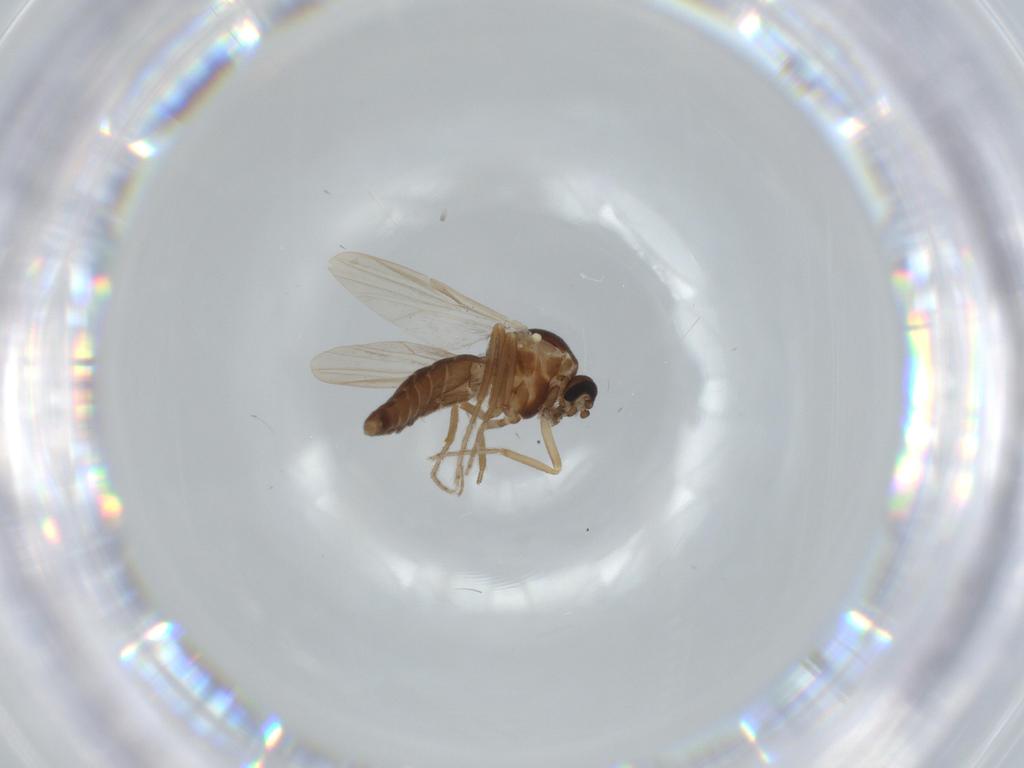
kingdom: Animalia
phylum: Arthropoda
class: Insecta
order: Diptera
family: Ceratopogonidae
